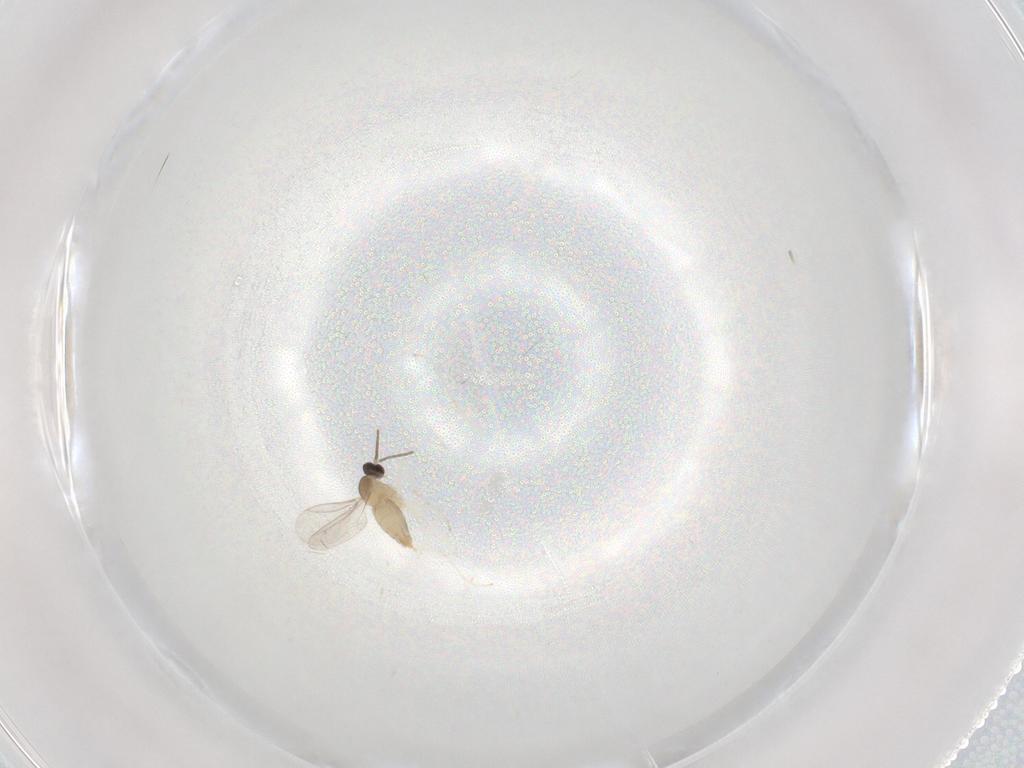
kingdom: Animalia
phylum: Arthropoda
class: Insecta
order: Diptera
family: Cecidomyiidae
